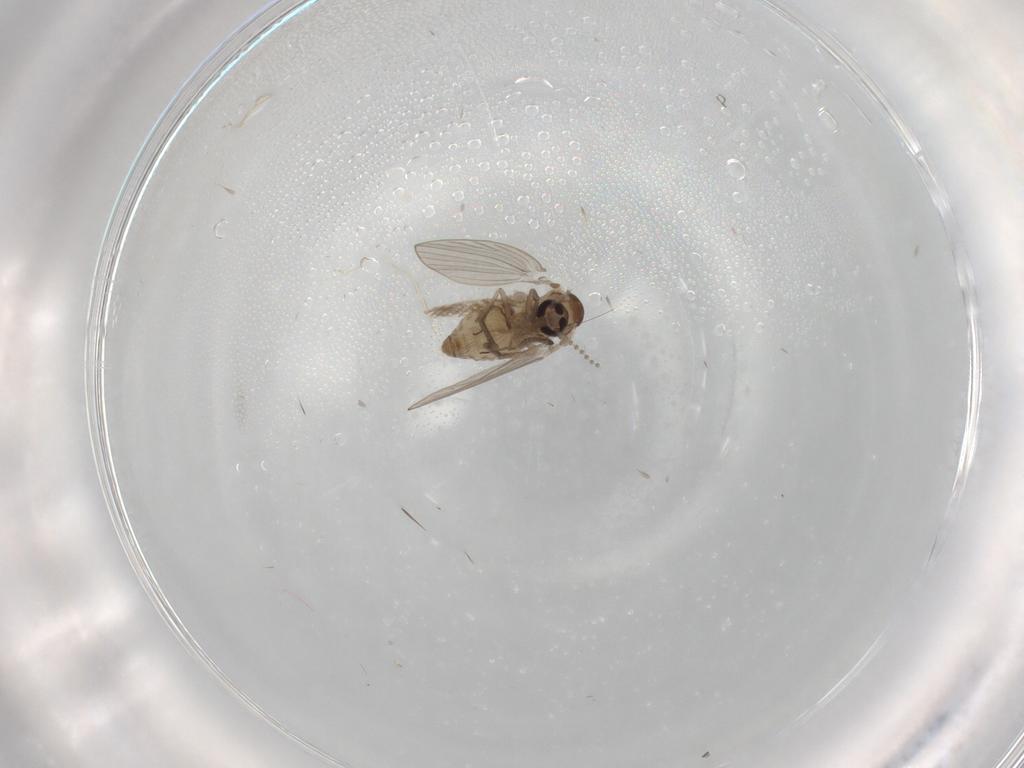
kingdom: Animalia
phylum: Arthropoda
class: Insecta
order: Diptera
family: Psychodidae
